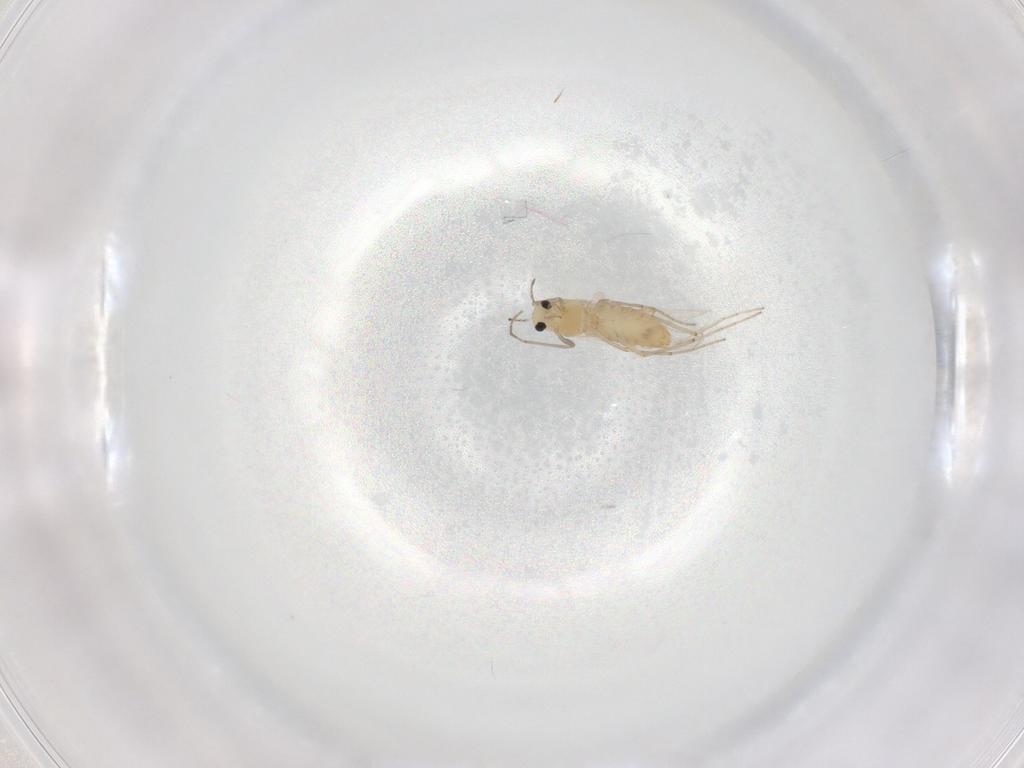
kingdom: Animalia
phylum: Arthropoda
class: Insecta
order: Diptera
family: Chironomidae
